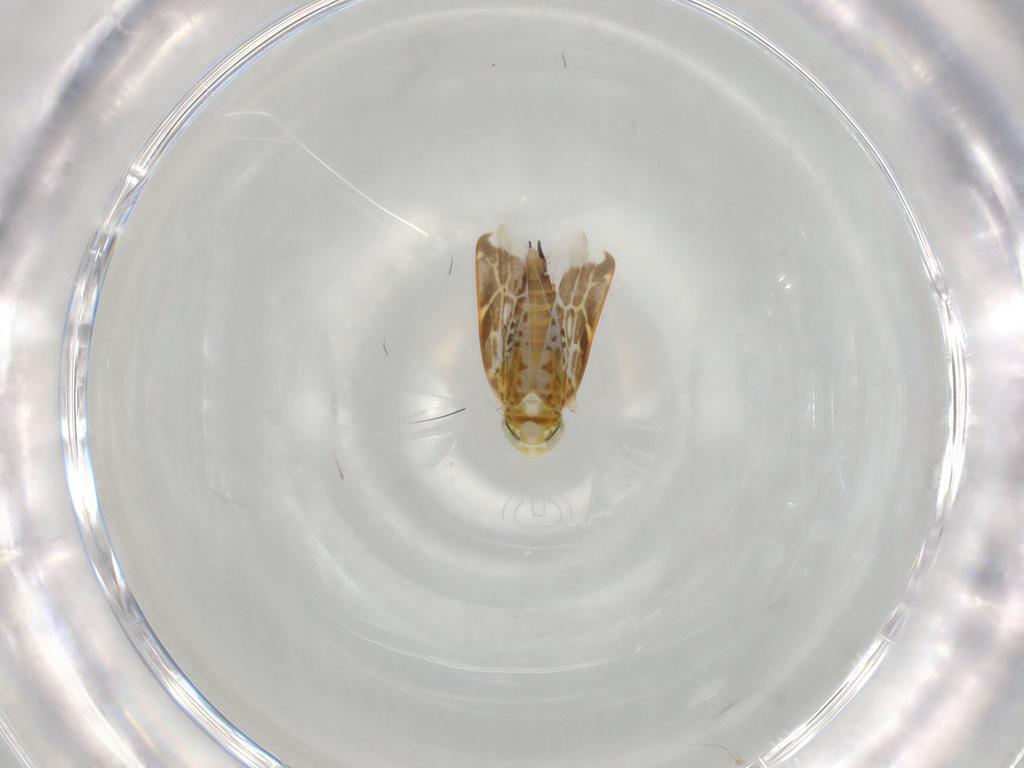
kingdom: Animalia
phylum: Arthropoda
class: Insecta
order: Hemiptera
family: Cicadellidae
